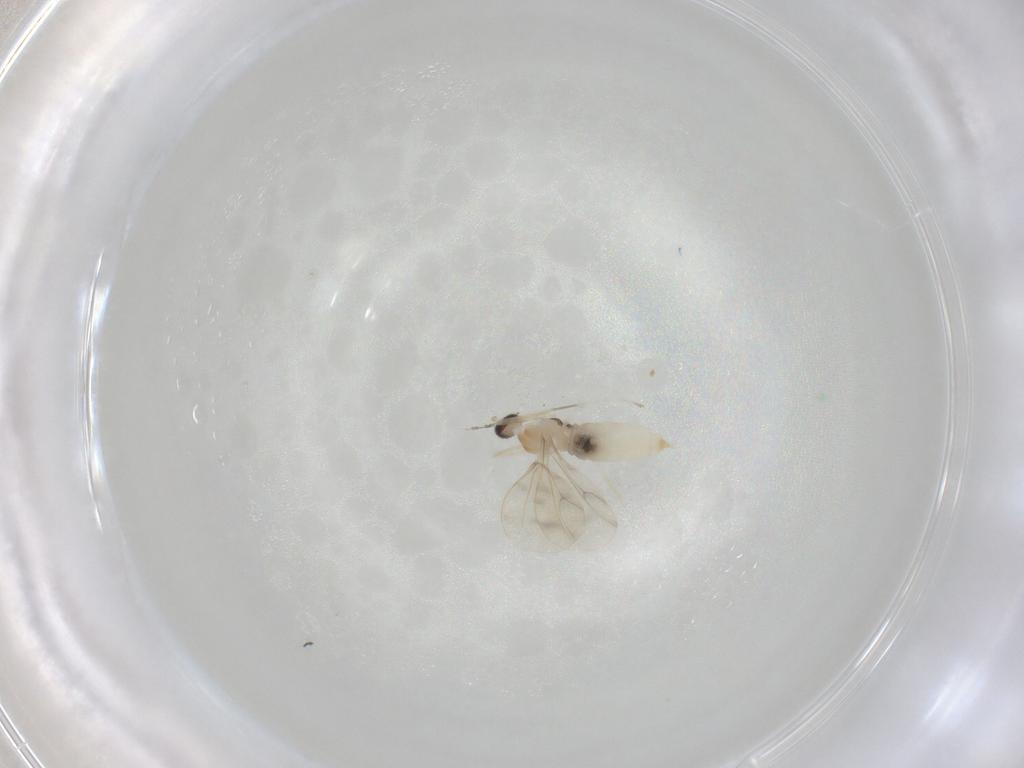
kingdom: Animalia
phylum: Arthropoda
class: Insecta
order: Diptera
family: Cecidomyiidae
